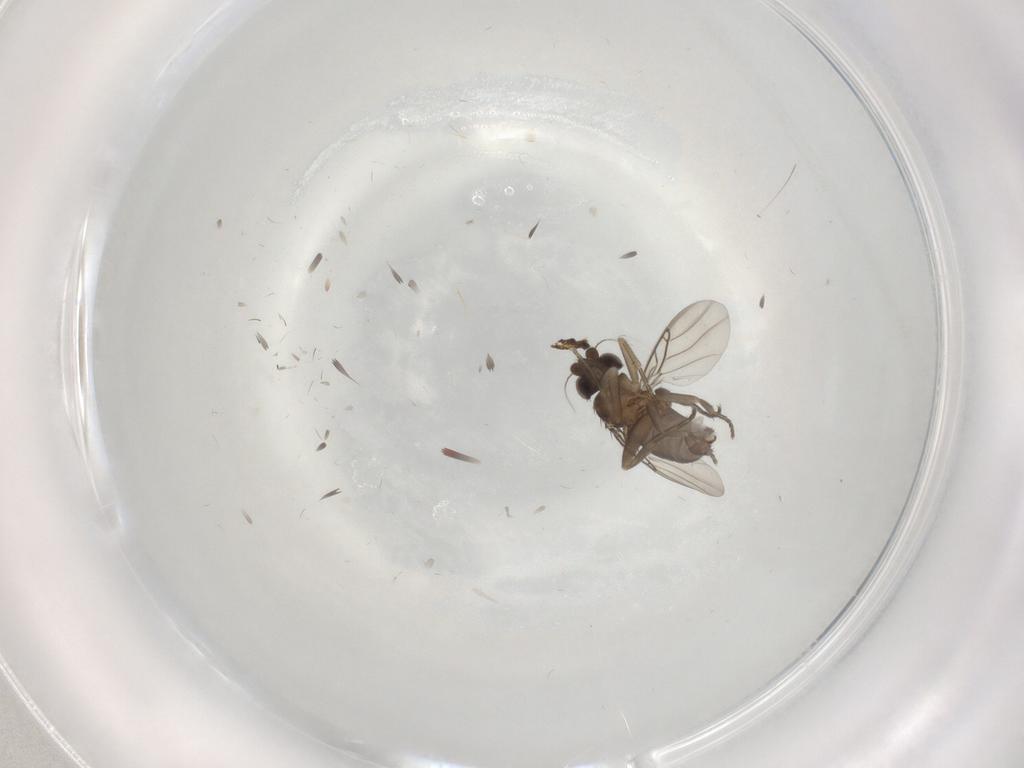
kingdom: Animalia
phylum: Arthropoda
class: Insecta
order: Diptera
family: Phoridae
